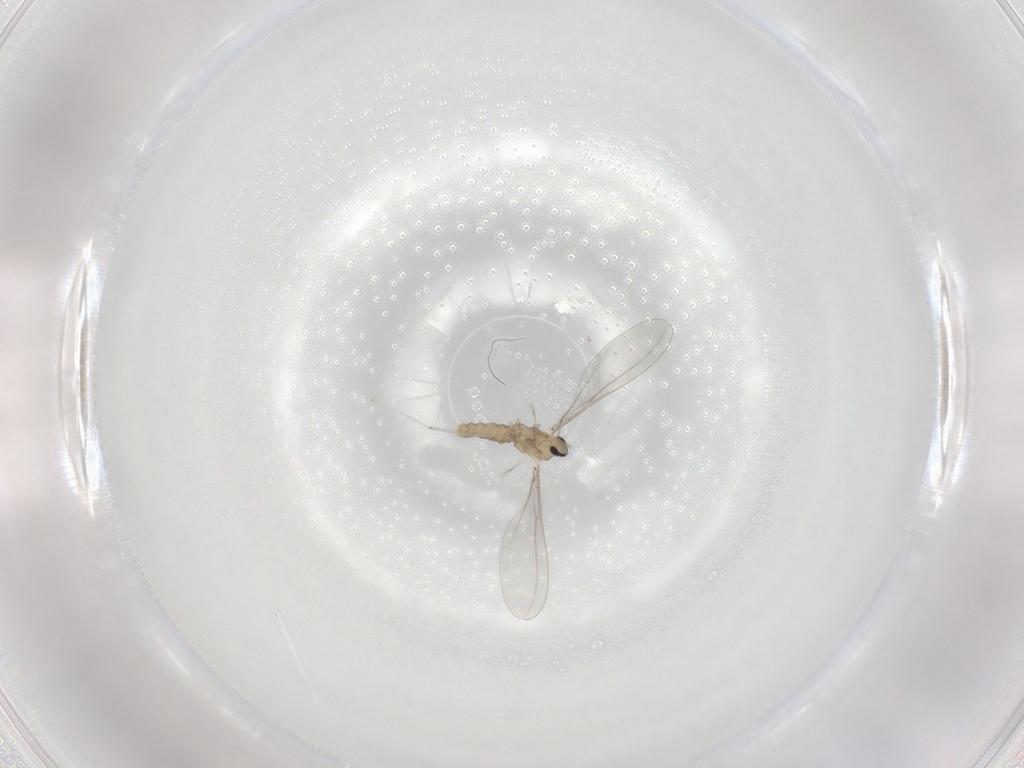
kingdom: Animalia
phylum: Arthropoda
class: Insecta
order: Diptera
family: Cecidomyiidae
